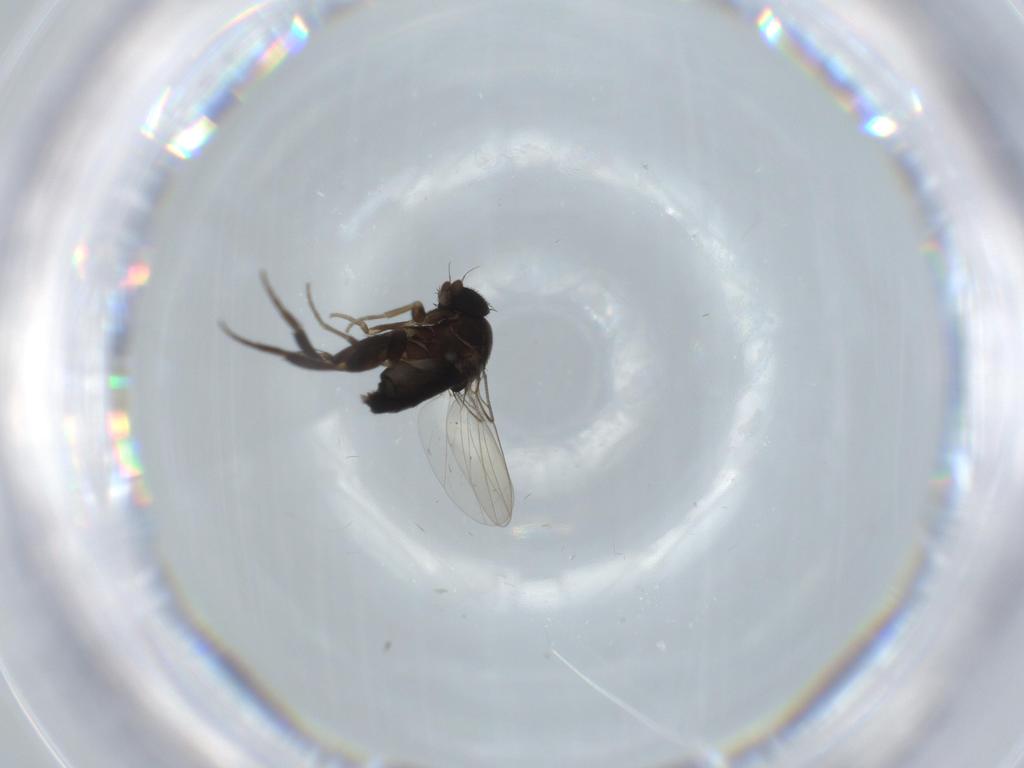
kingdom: Animalia
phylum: Arthropoda
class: Insecta
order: Diptera
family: Phoridae
